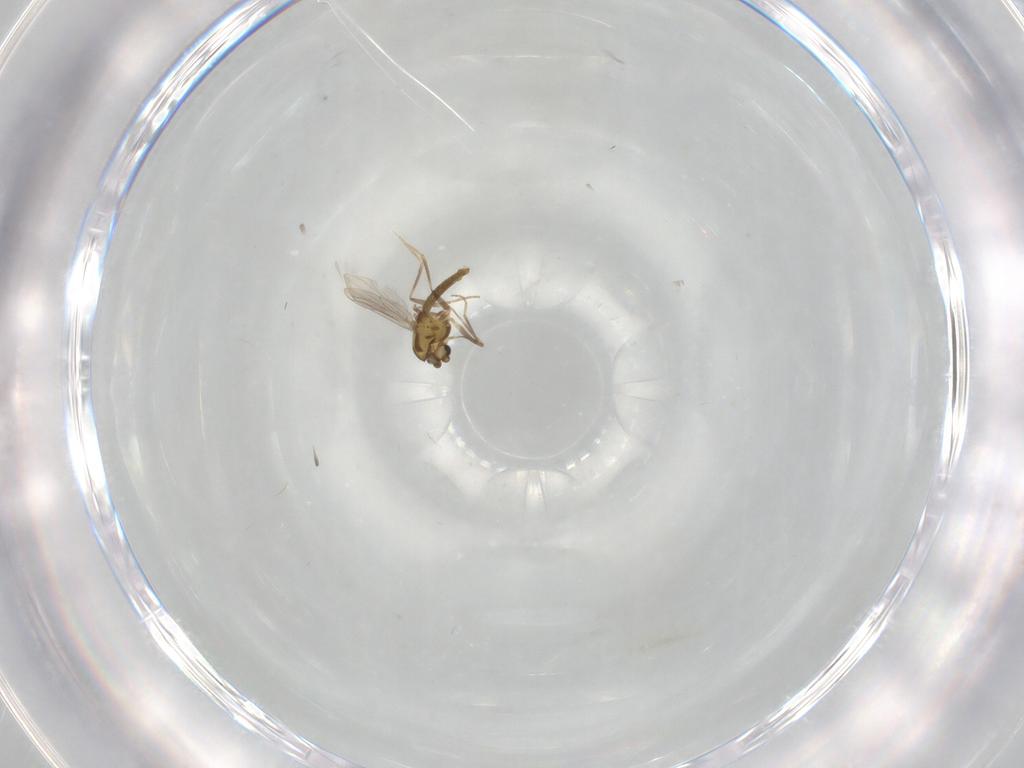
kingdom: Animalia
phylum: Arthropoda
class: Insecta
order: Diptera
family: Chironomidae
